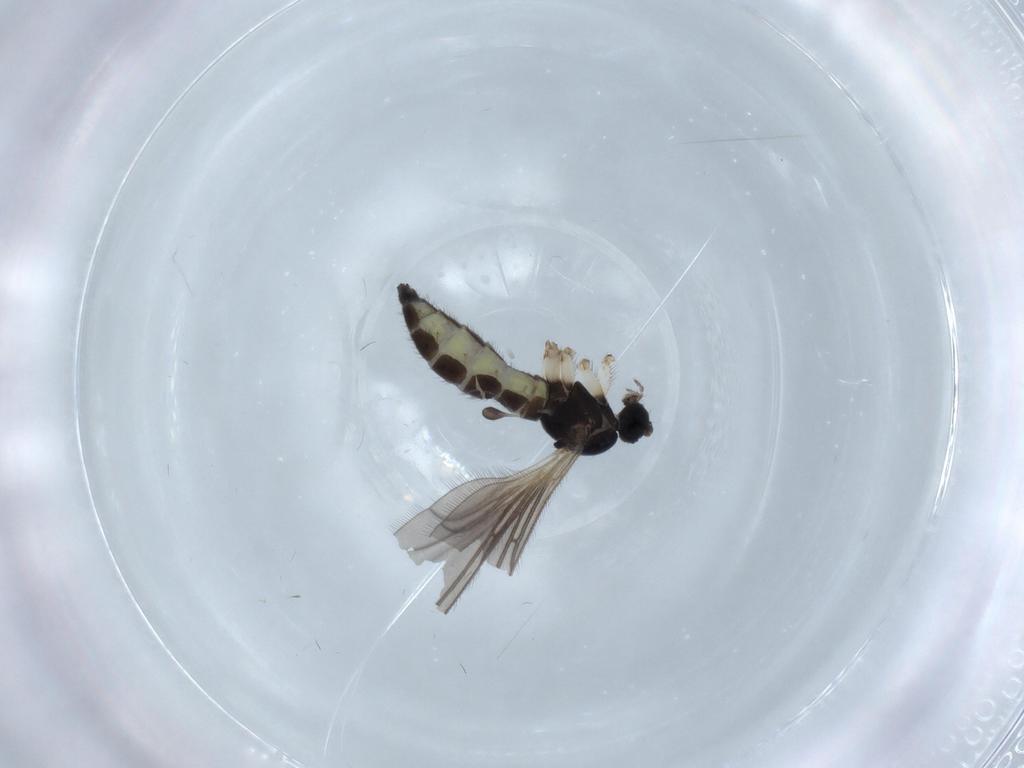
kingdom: Animalia
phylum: Arthropoda
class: Insecta
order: Diptera
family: Sciaridae
